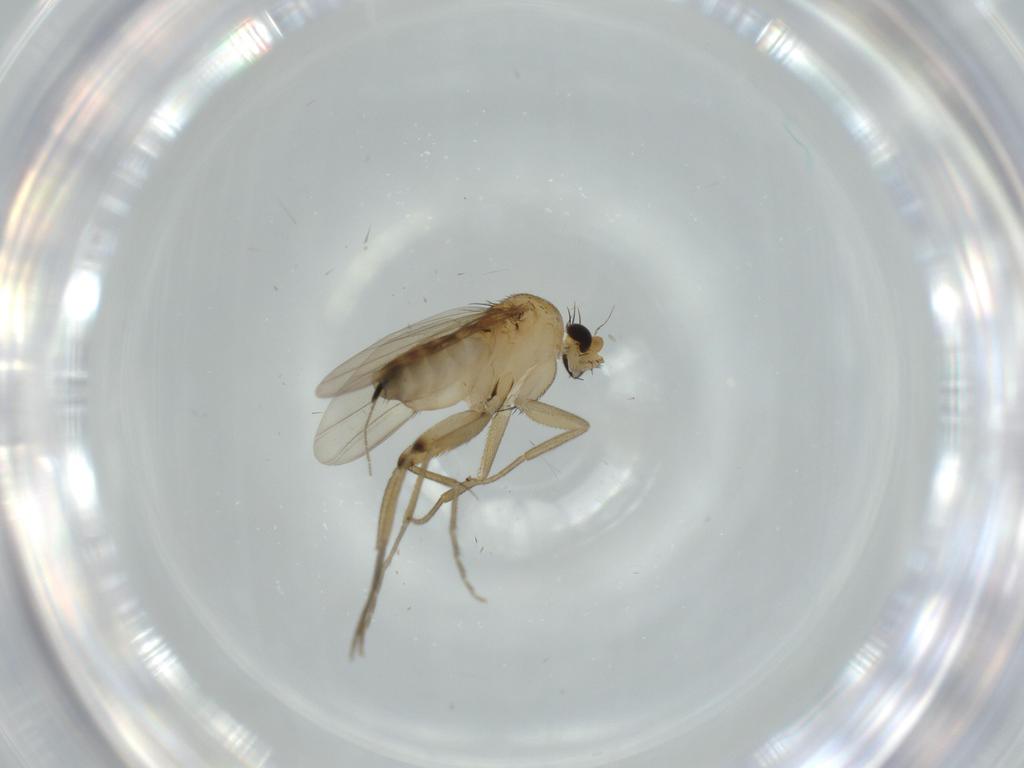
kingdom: Animalia
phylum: Arthropoda
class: Insecta
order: Diptera
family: Phoridae
